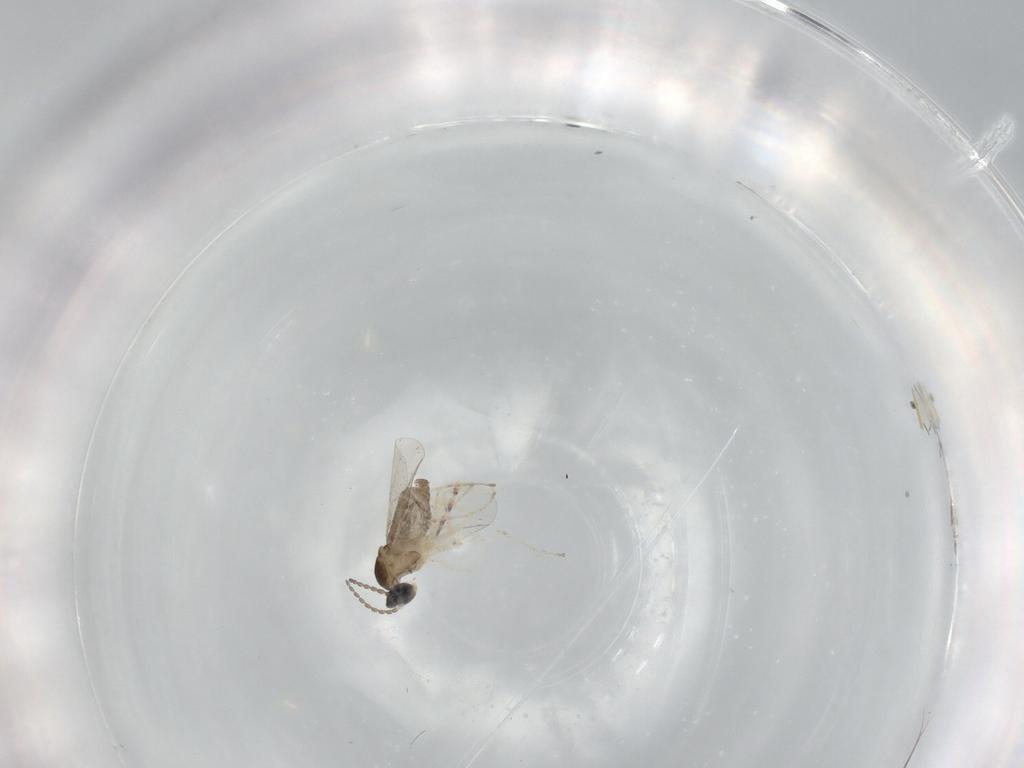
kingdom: Animalia
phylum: Arthropoda
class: Insecta
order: Diptera
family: Cecidomyiidae
